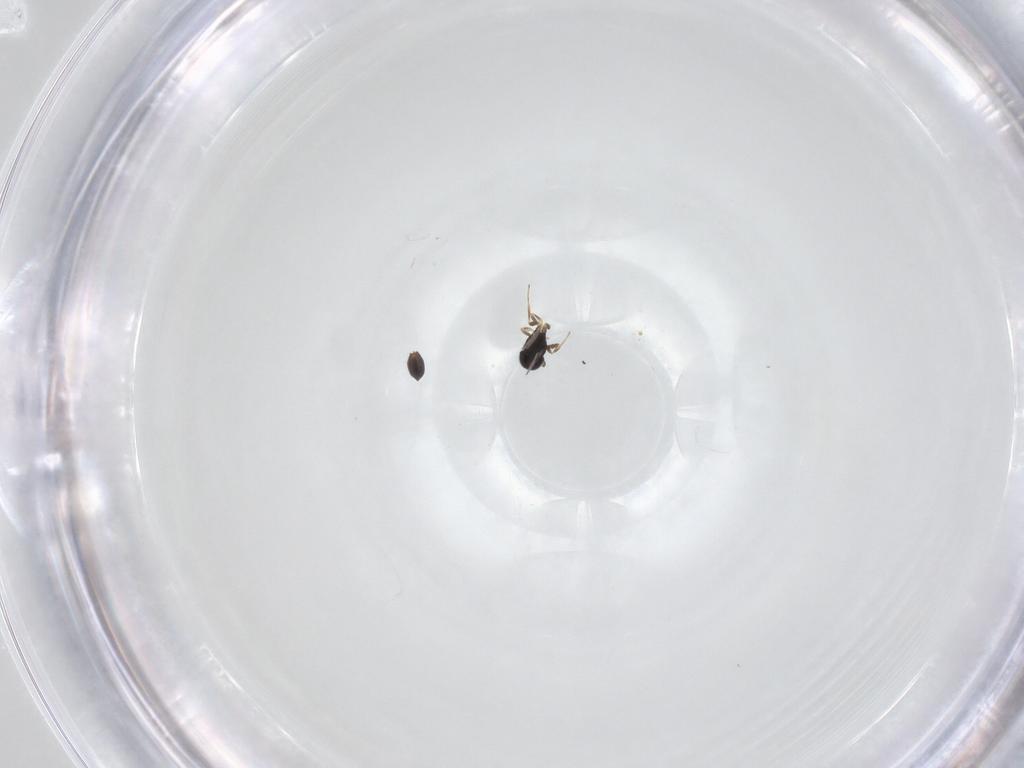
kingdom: Animalia
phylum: Arthropoda
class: Insecta
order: Hymenoptera
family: Scelionidae
